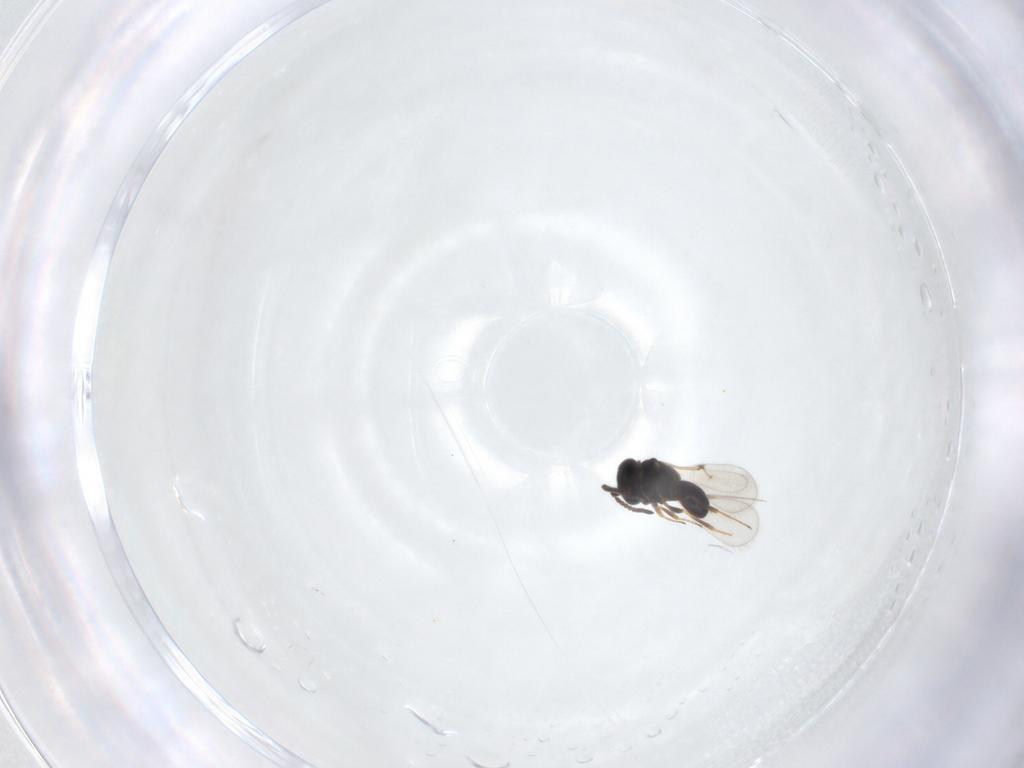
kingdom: Animalia
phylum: Arthropoda
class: Insecta
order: Hymenoptera
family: Scelionidae
